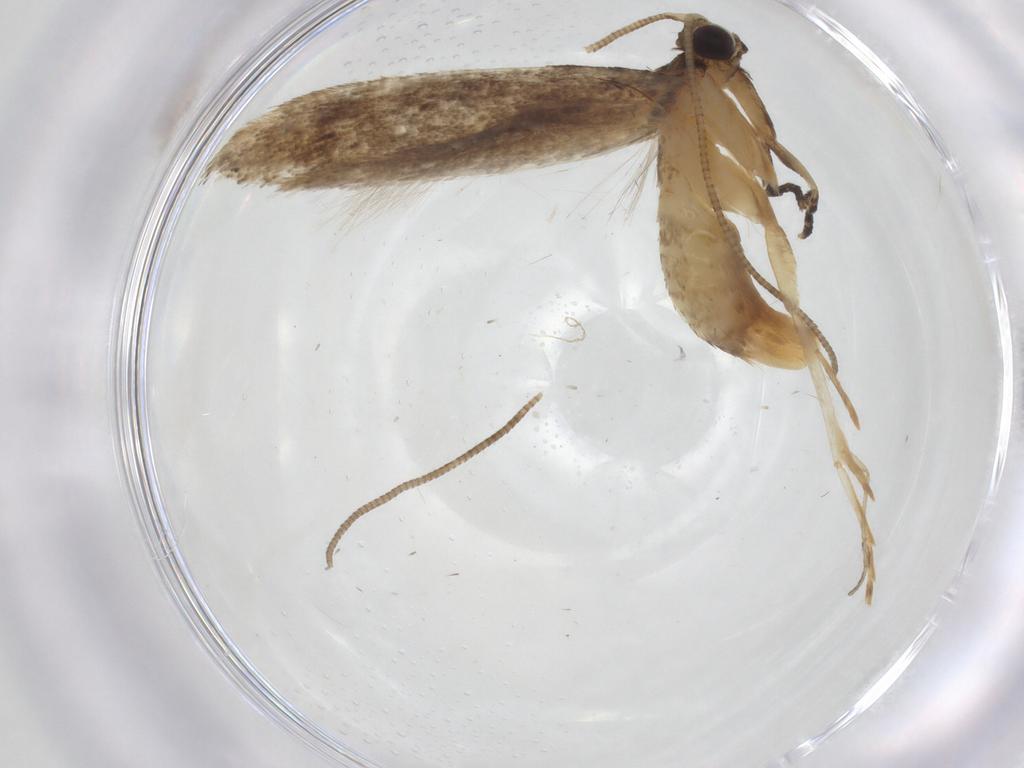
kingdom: Animalia
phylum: Arthropoda
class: Insecta
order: Lepidoptera
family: Tineidae
